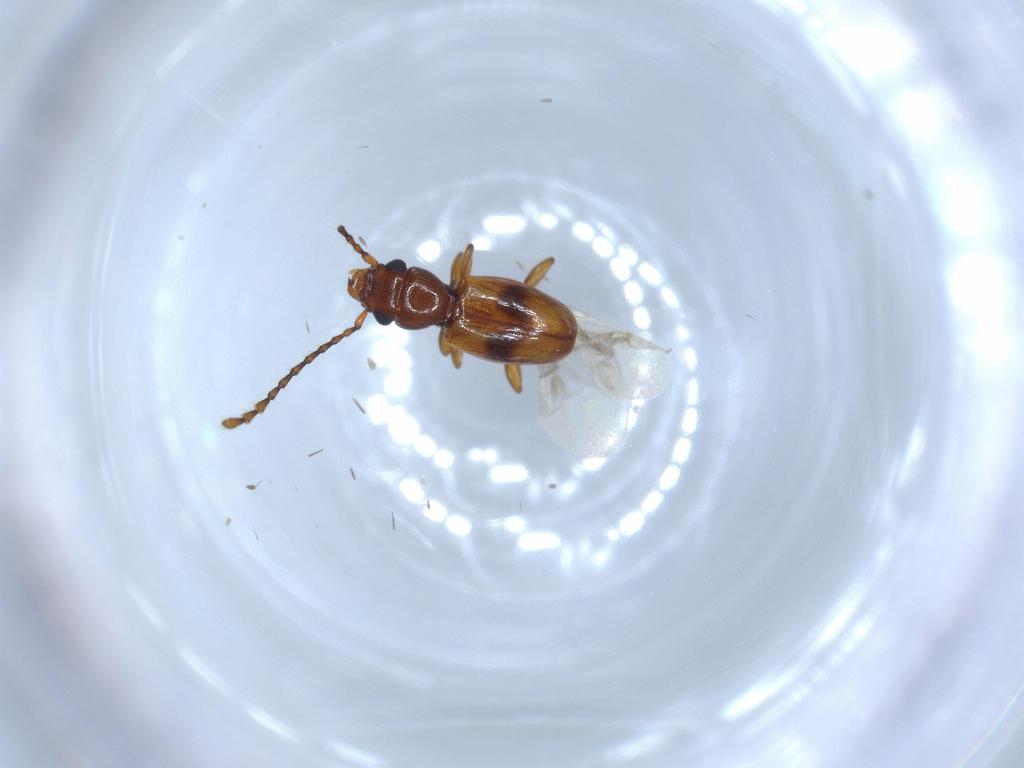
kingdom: Animalia
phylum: Arthropoda
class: Insecta
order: Coleoptera
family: Laemophloeidae
